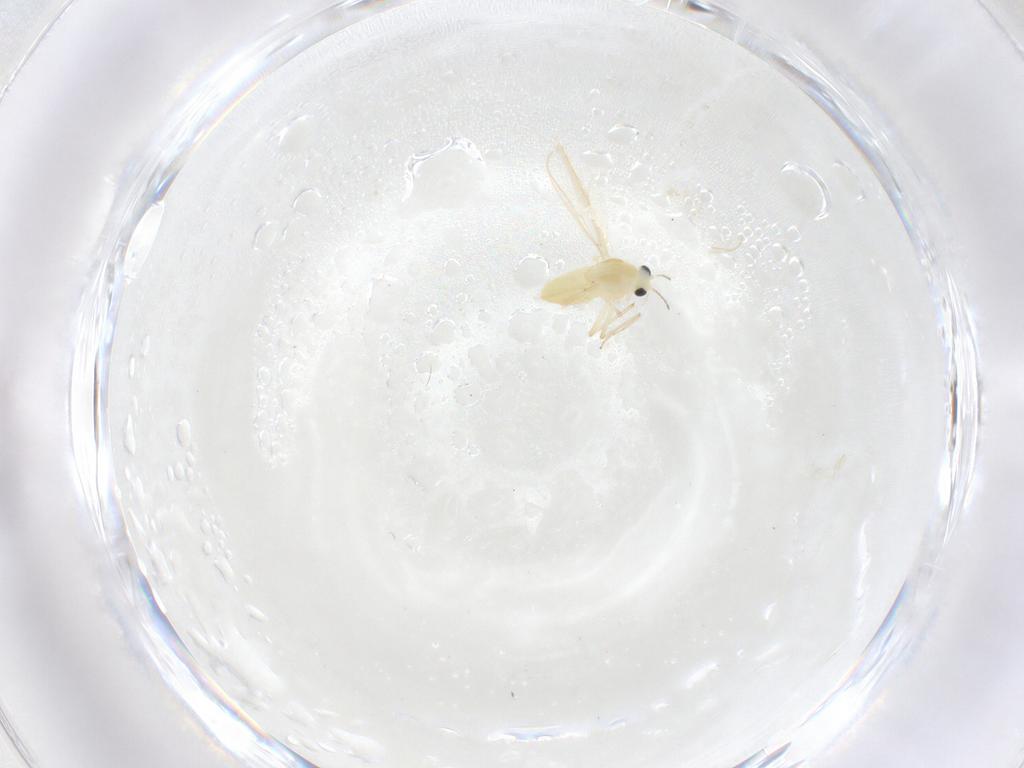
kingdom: Animalia
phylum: Arthropoda
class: Insecta
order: Diptera
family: Chironomidae
